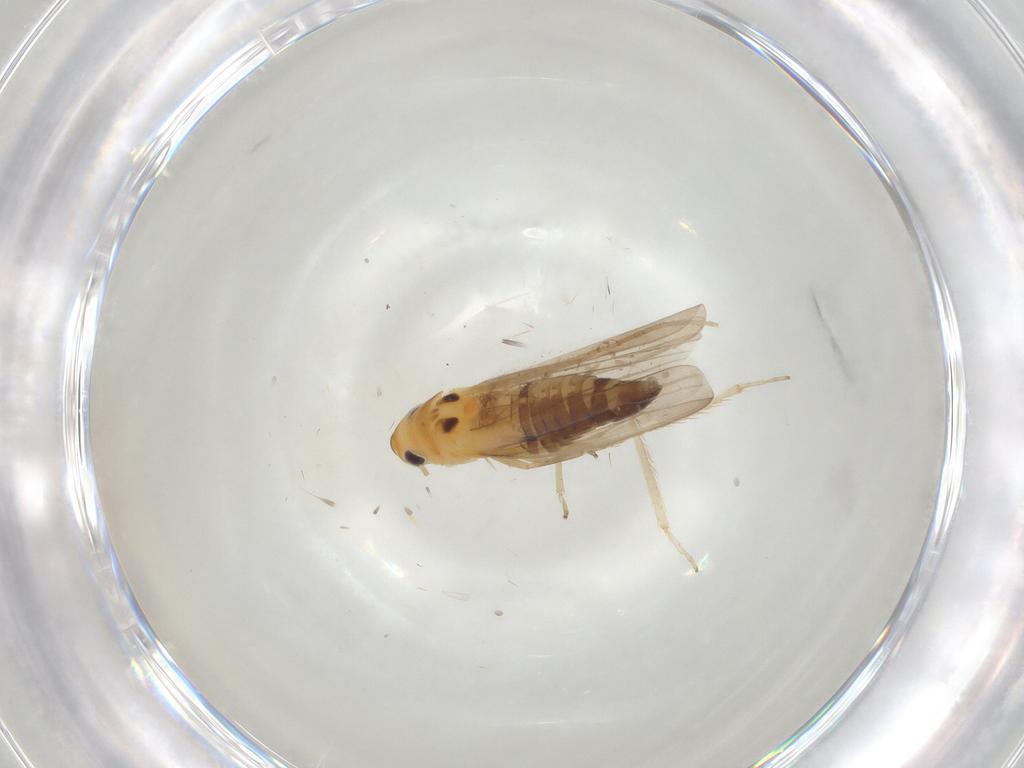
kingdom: Animalia
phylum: Arthropoda
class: Insecta
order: Hemiptera
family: Cicadellidae
